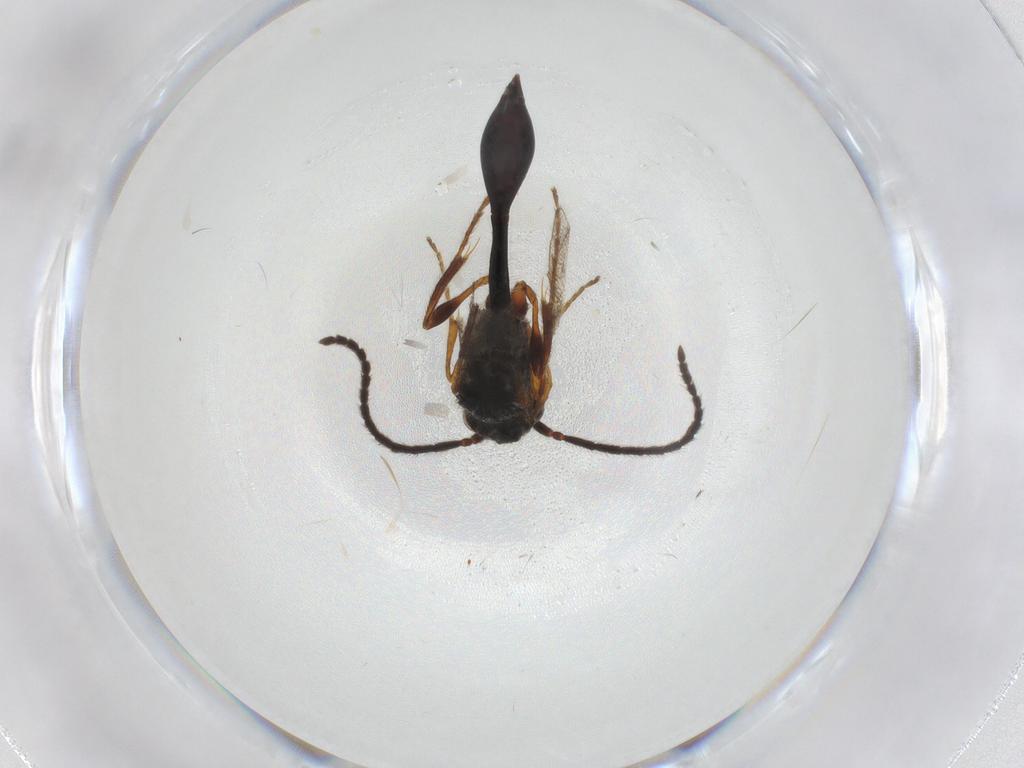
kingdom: Animalia
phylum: Arthropoda
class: Insecta
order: Hymenoptera
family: Diapriidae
